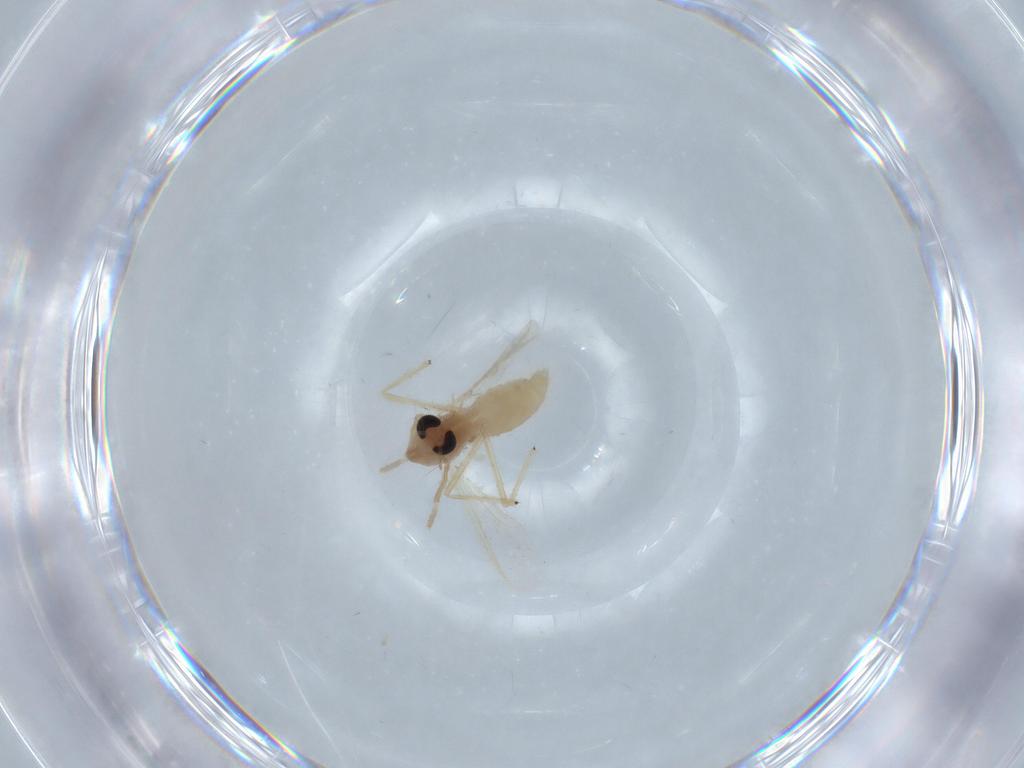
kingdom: Animalia
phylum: Arthropoda
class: Insecta
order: Diptera
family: Chironomidae
